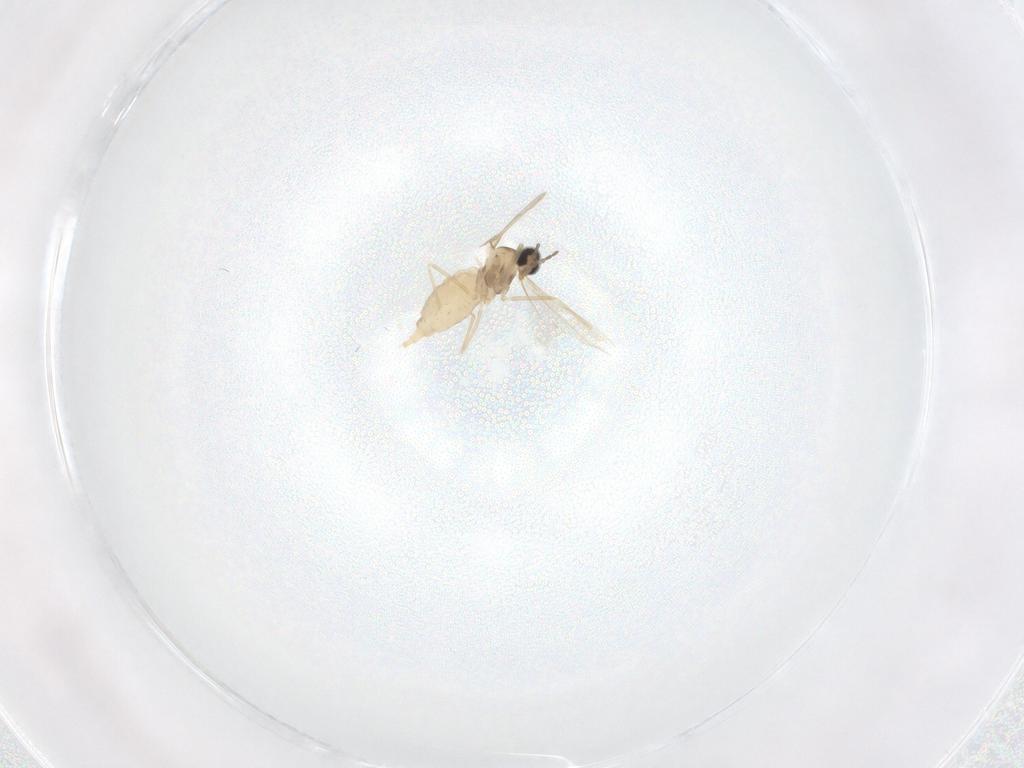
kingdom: Animalia
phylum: Arthropoda
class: Insecta
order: Diptera
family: Cecidomyiidae
